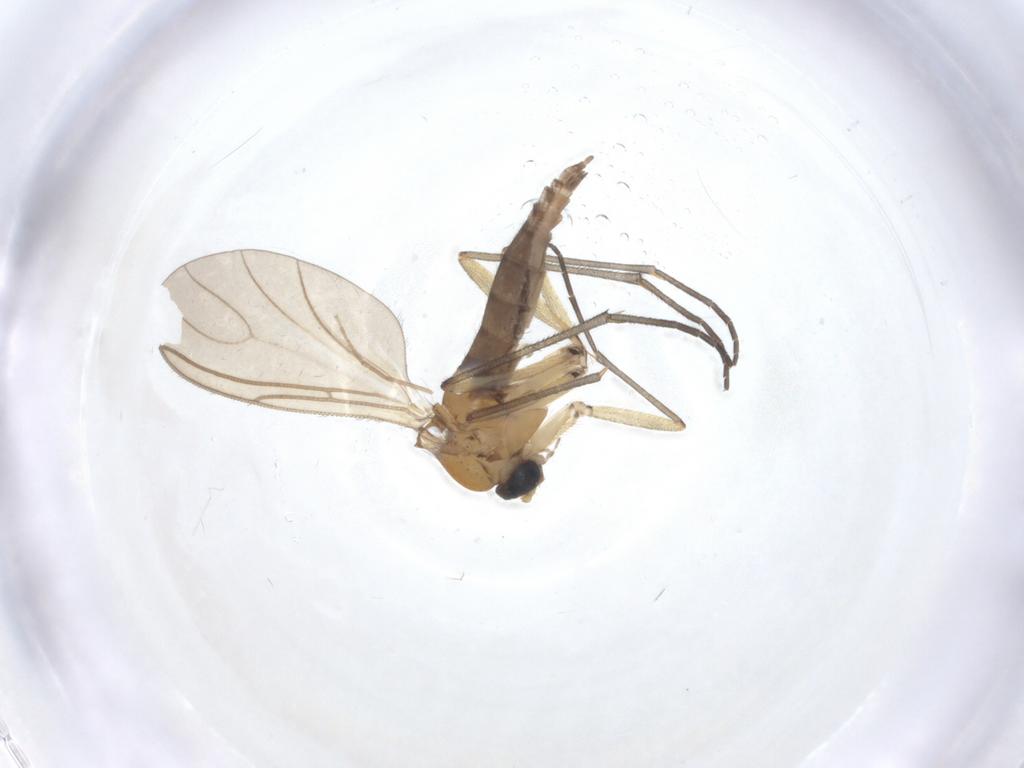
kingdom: Animalia
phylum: Arthropoda
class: Insecta
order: Diptera
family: Sciaridae
